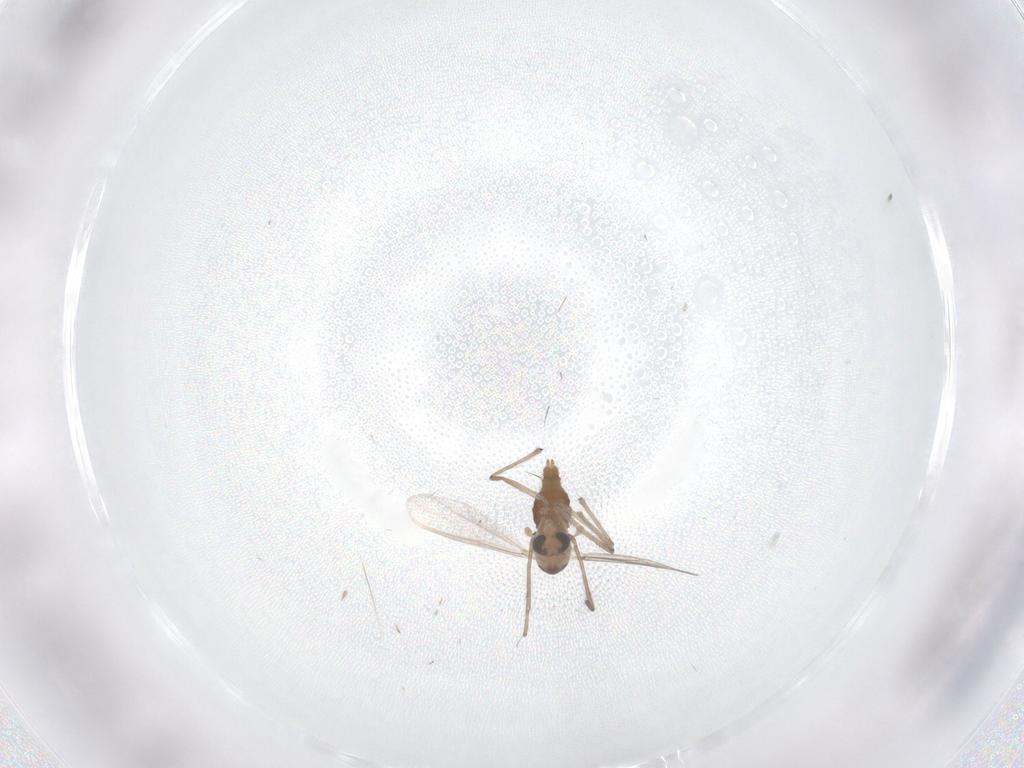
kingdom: Animalia
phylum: Arthropoda
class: Insecta
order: Diptera
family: Chironomidae
